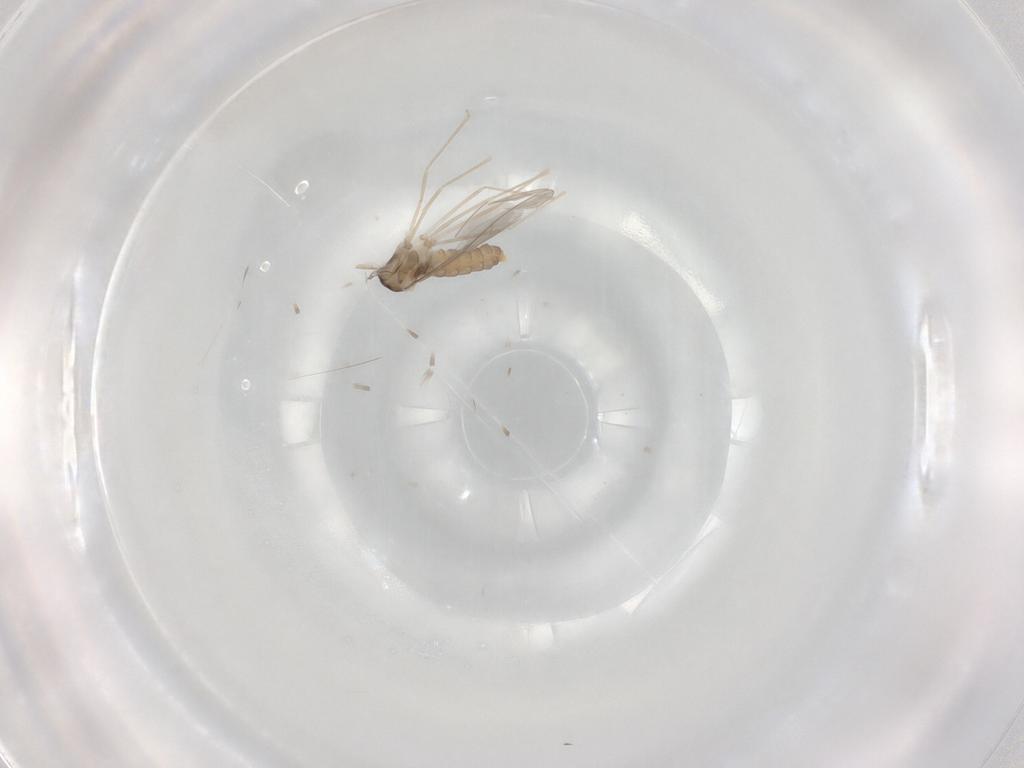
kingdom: Animalia
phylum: Arthropoda
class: Insecta
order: Diptera
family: Cecidomyiidae
